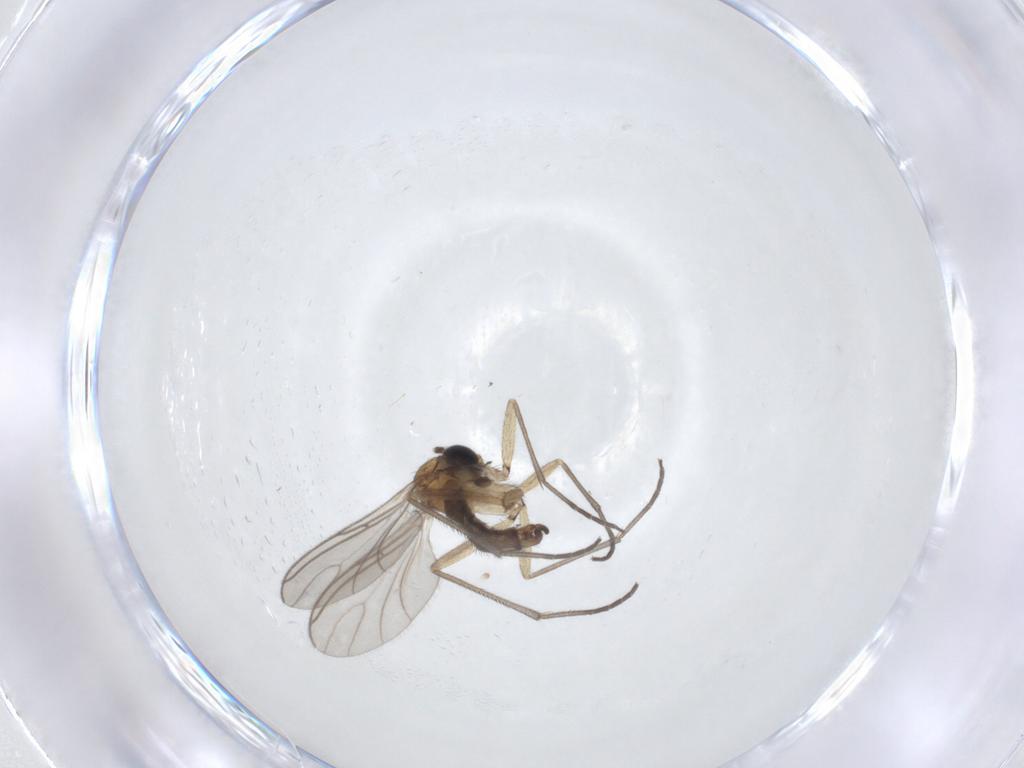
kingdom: Animalia
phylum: Arthropoda
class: Insecta
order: Diptera
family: Sciaridae
